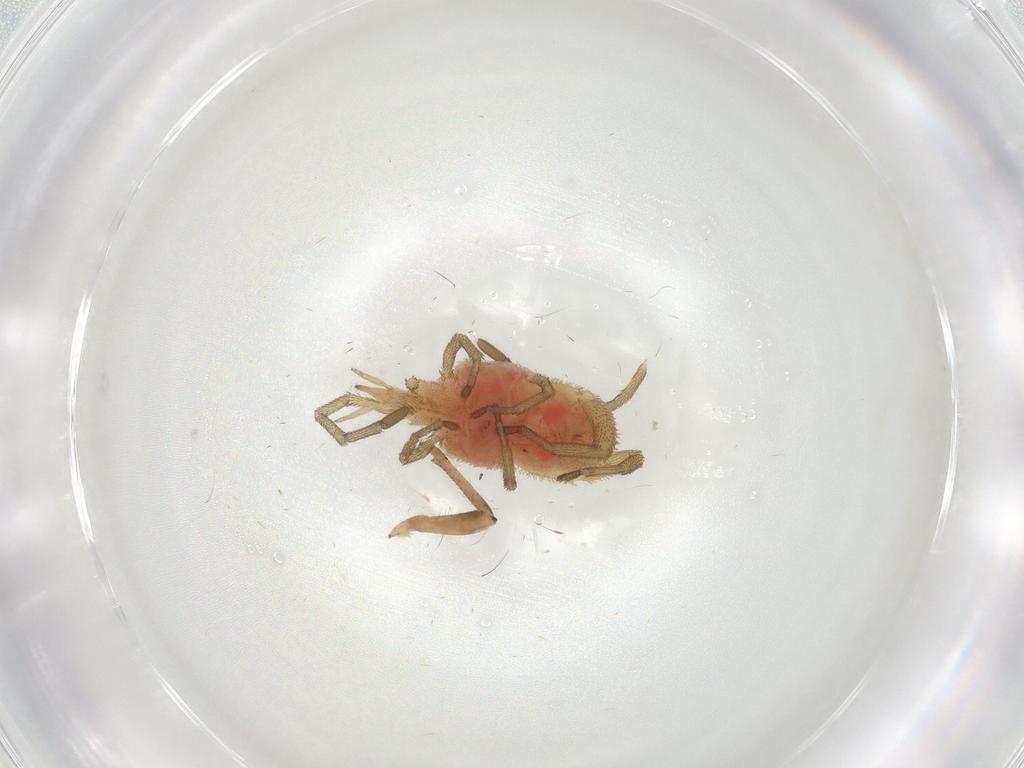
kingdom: Animalia
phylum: Arthropoda
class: Arachnida
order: Trombidiformes
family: Smarididae
